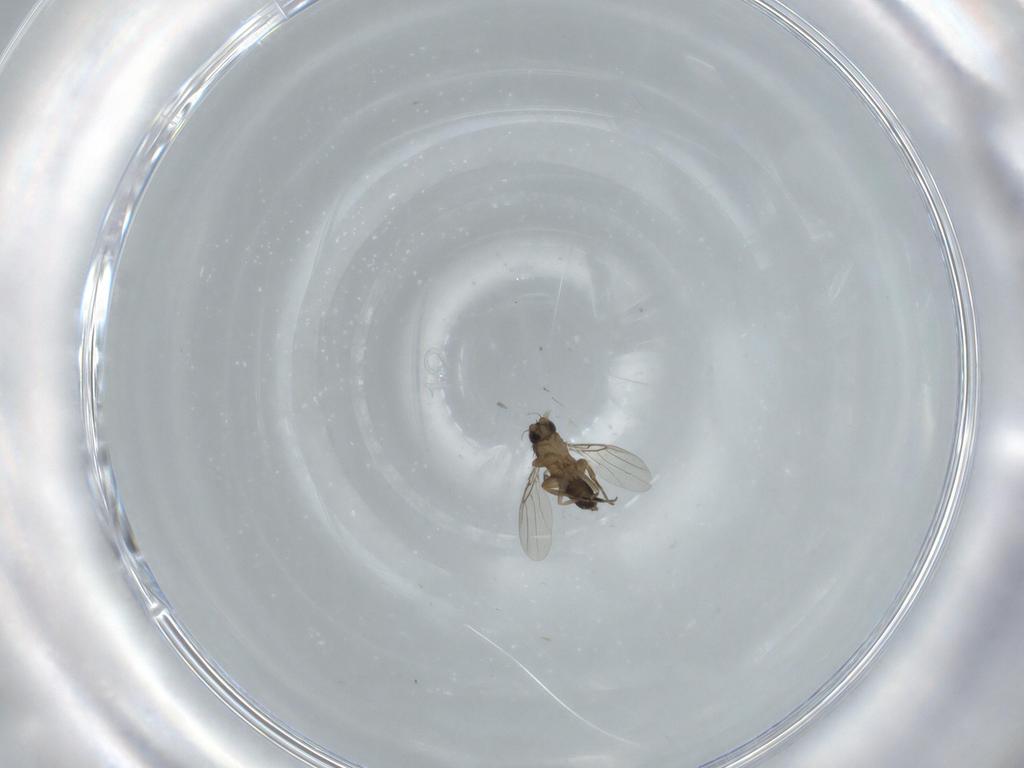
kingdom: Animalia
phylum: Arthropoda
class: Insecta
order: Diptera
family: Phoridae
